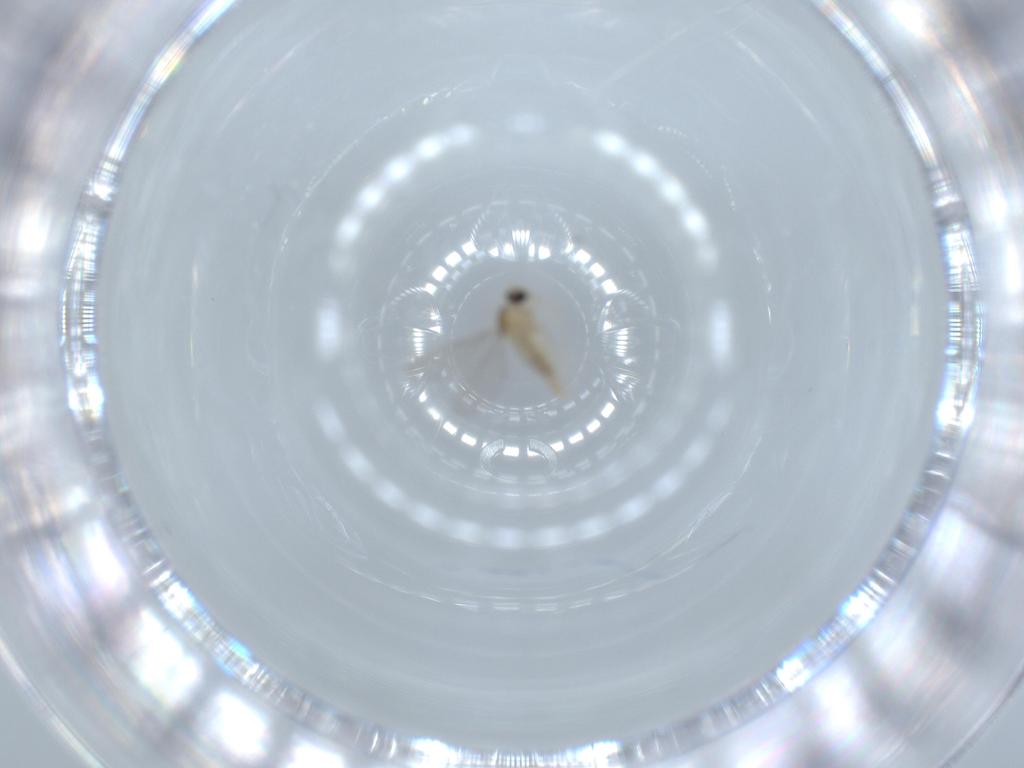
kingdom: Animalia
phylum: Arthropoda
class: Insecta
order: Diptera
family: Cecidomyiidae
